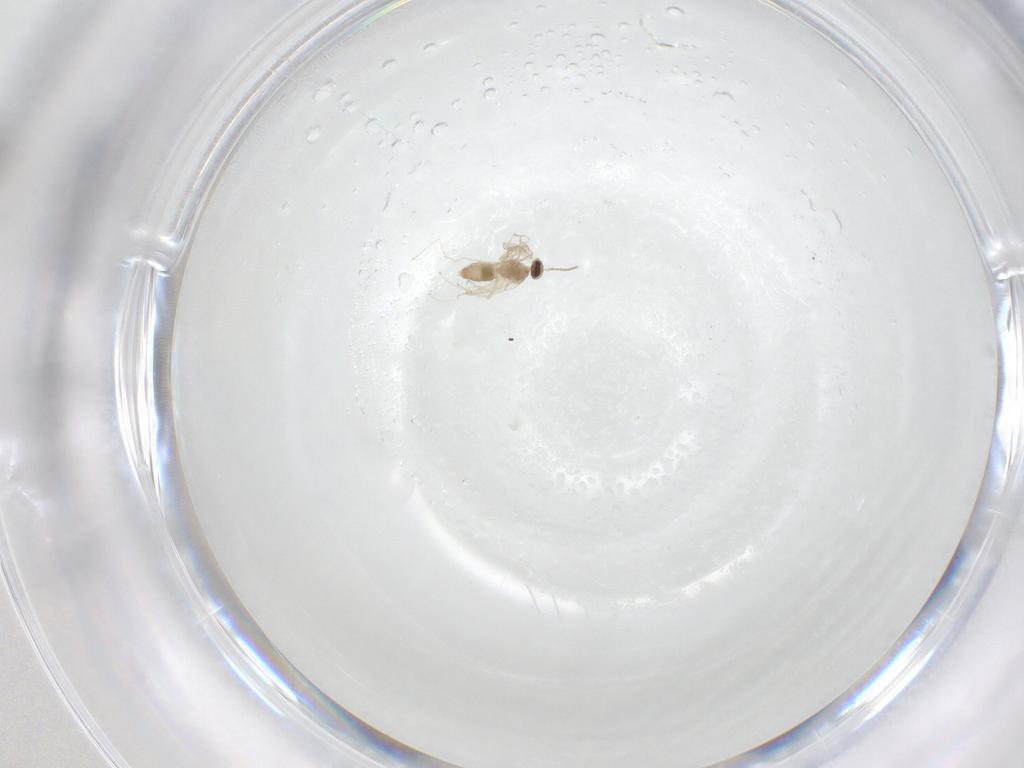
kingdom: Animalia
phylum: Arthropoda
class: Insecta
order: Diptera
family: Cecidomyiidae
